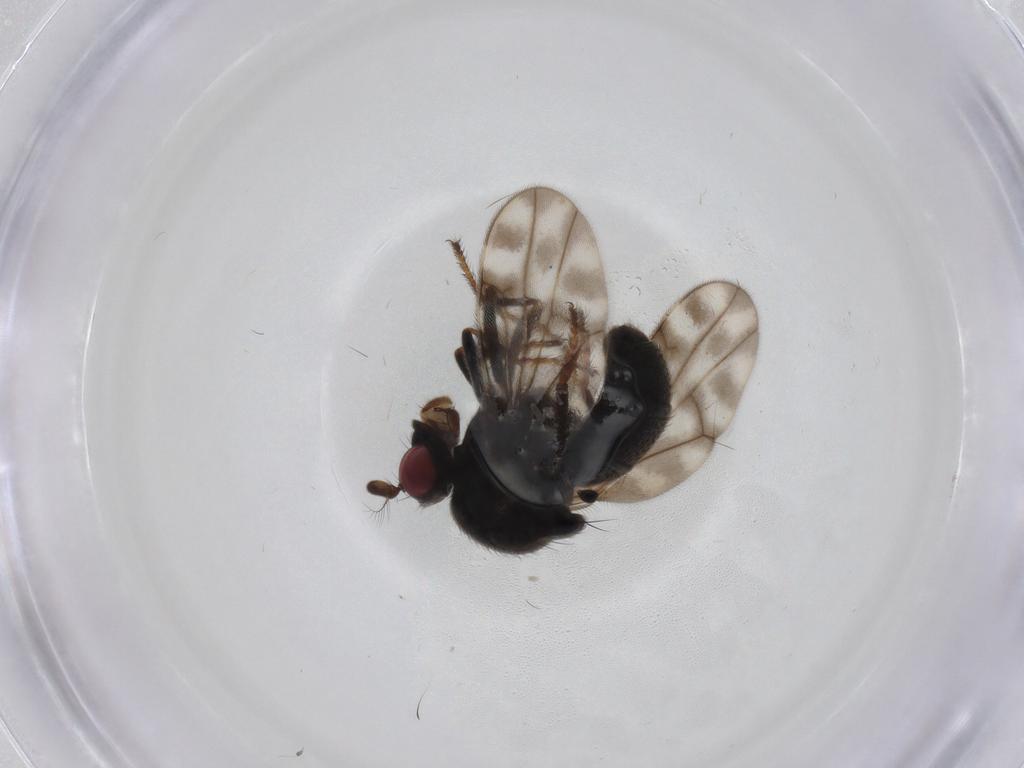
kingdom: Animalia
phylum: Arthropoda
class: Insecta
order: Diptera
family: Ephydridae
